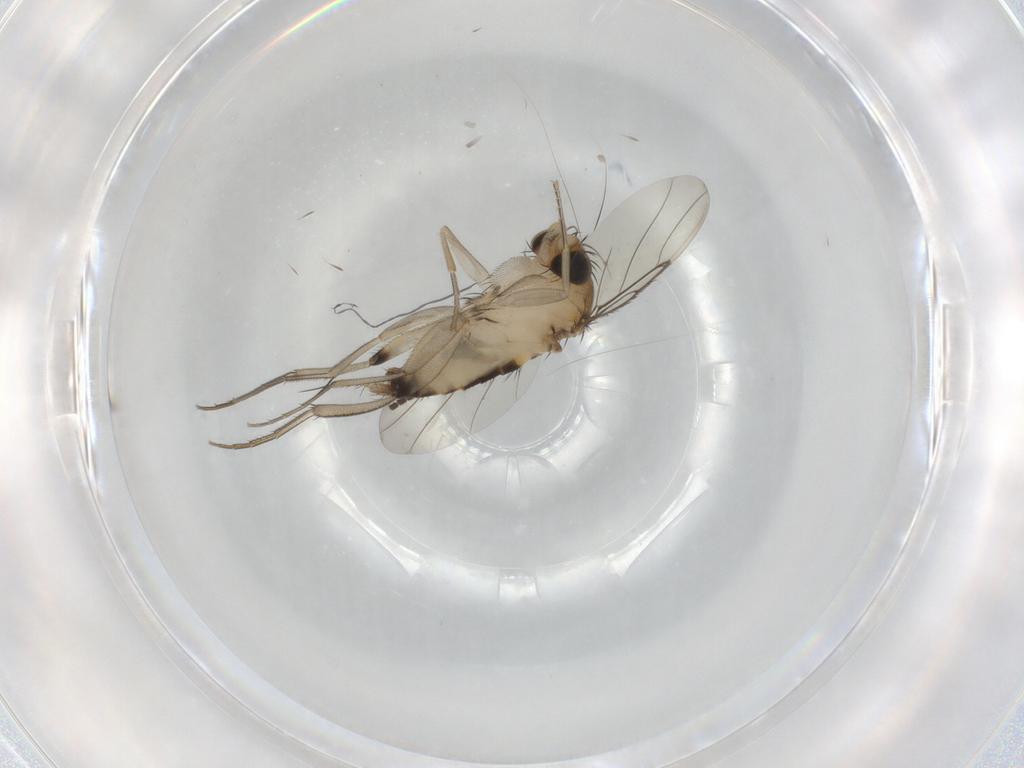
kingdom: Animalia
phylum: Arthropoda
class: Insecta
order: Diptera
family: Phoridae
